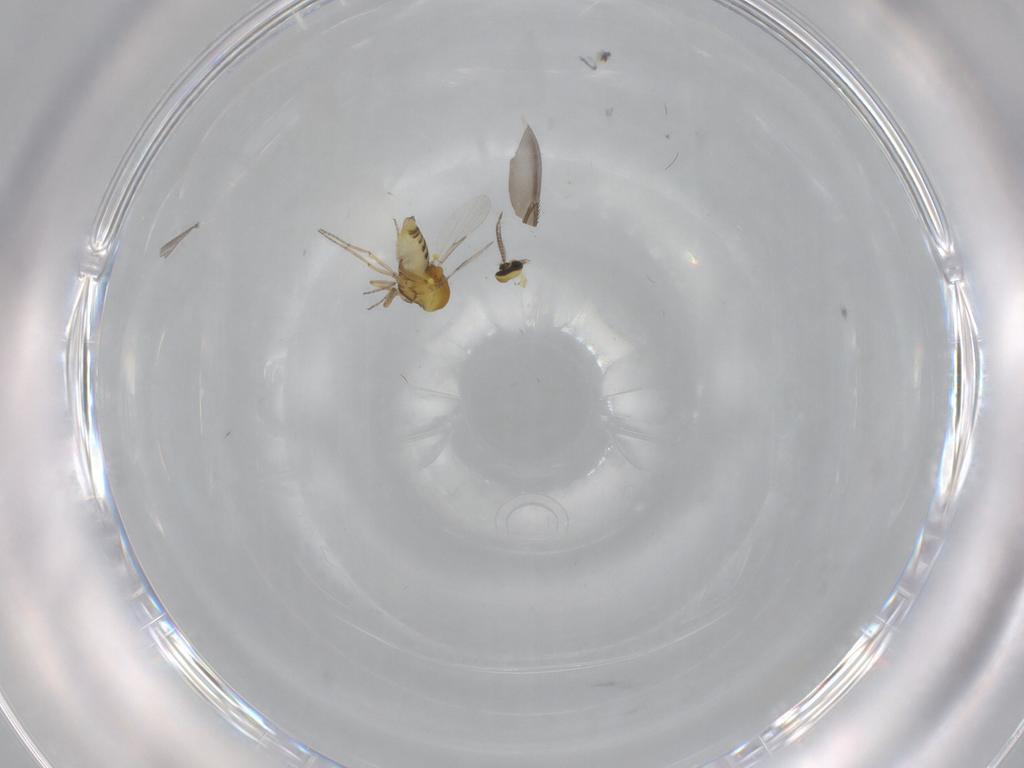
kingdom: Animalia
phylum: Arthropoda
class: Insecta
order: Diptera
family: Ceratopogonidae
